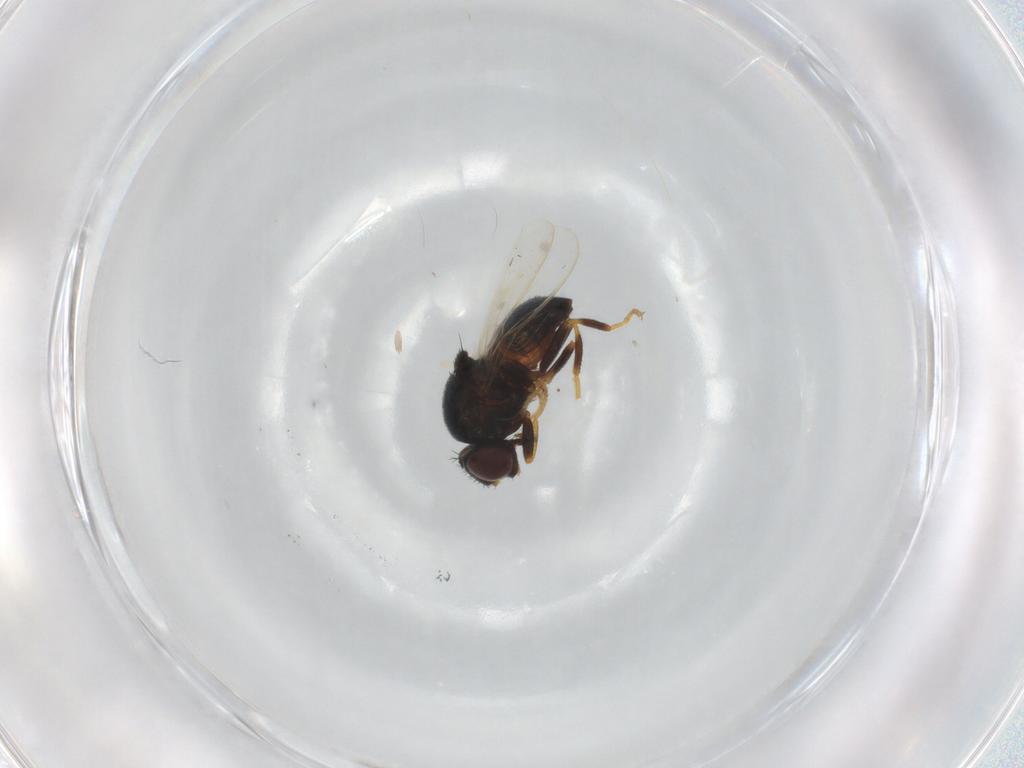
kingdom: Animalia
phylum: Arthropoda
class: Insecta
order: Diptera
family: Chloropidae
